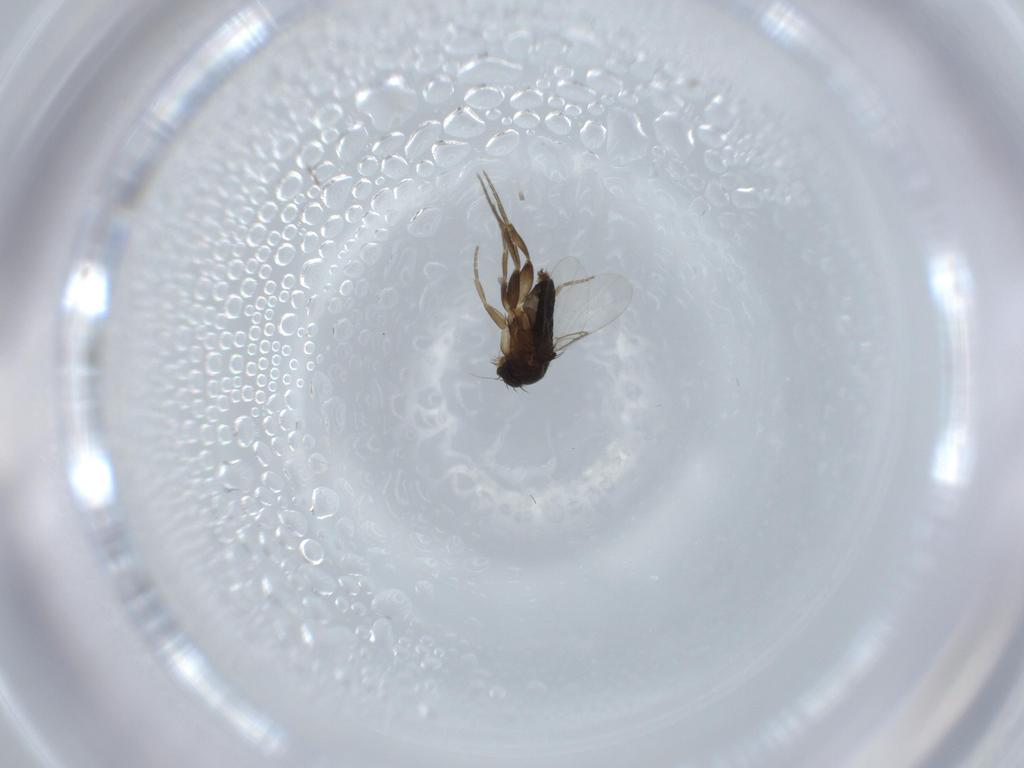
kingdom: Animalia
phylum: Arthropoda
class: Insecta
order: Diptera
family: Phoridae
